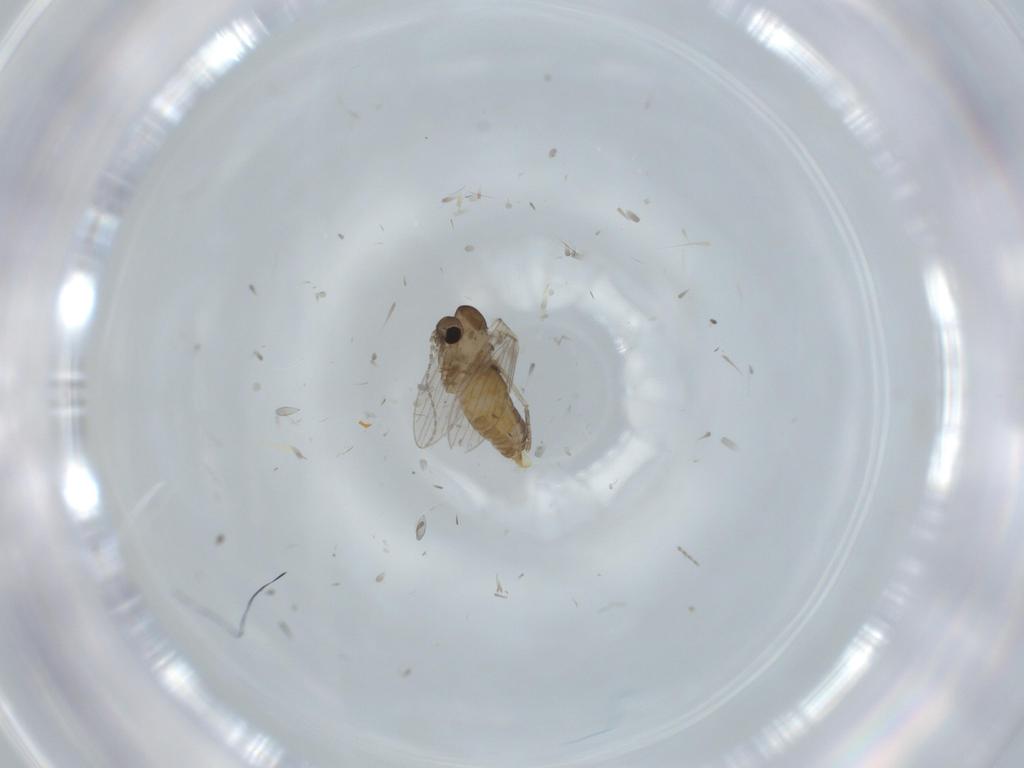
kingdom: Animalia
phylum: Arthropoda
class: Insecta
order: Diptera
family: Psychodidae
